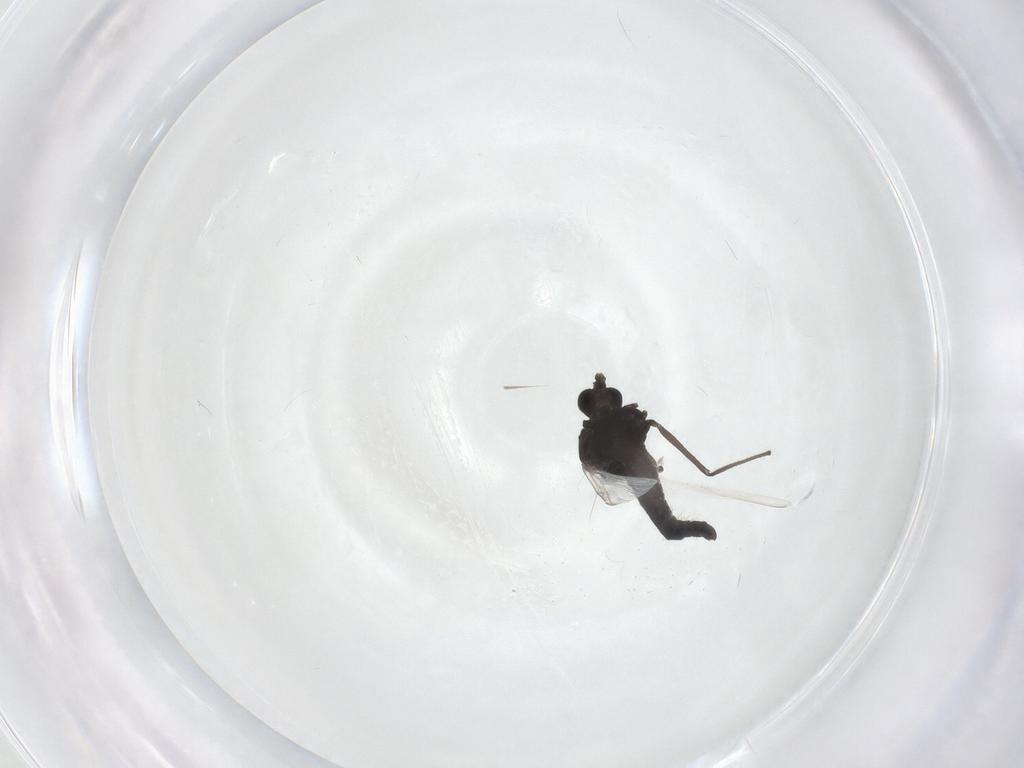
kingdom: Animalia
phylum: Arthropoda
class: Insecta
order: Diptera
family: Chironomidae
